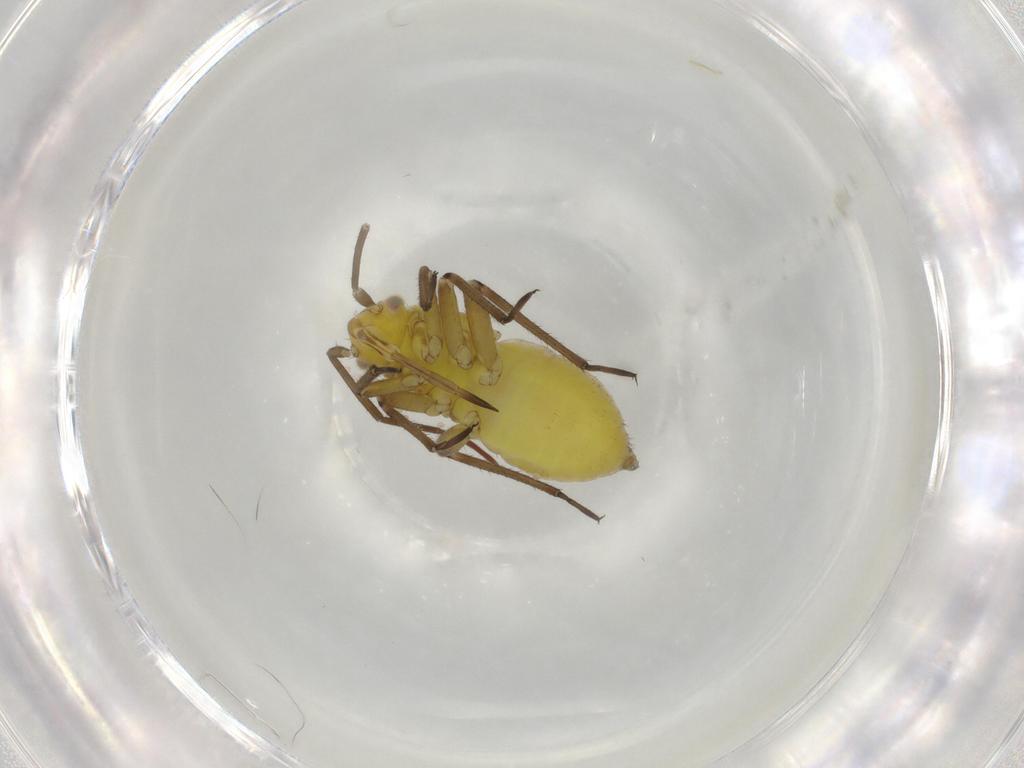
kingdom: Animalia
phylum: Arthropoda
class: Insecta
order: Hemiptera
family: Miridae
